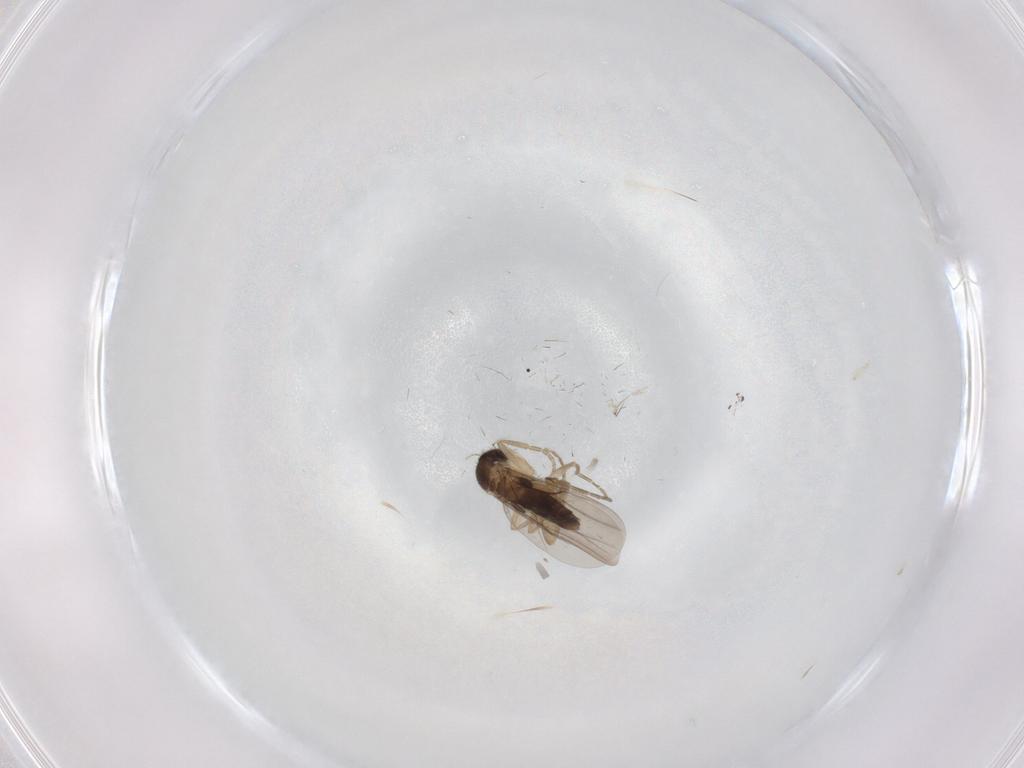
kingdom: Animalia
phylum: Arthropoda
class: Insecta
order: Diptera
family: Phoridae
